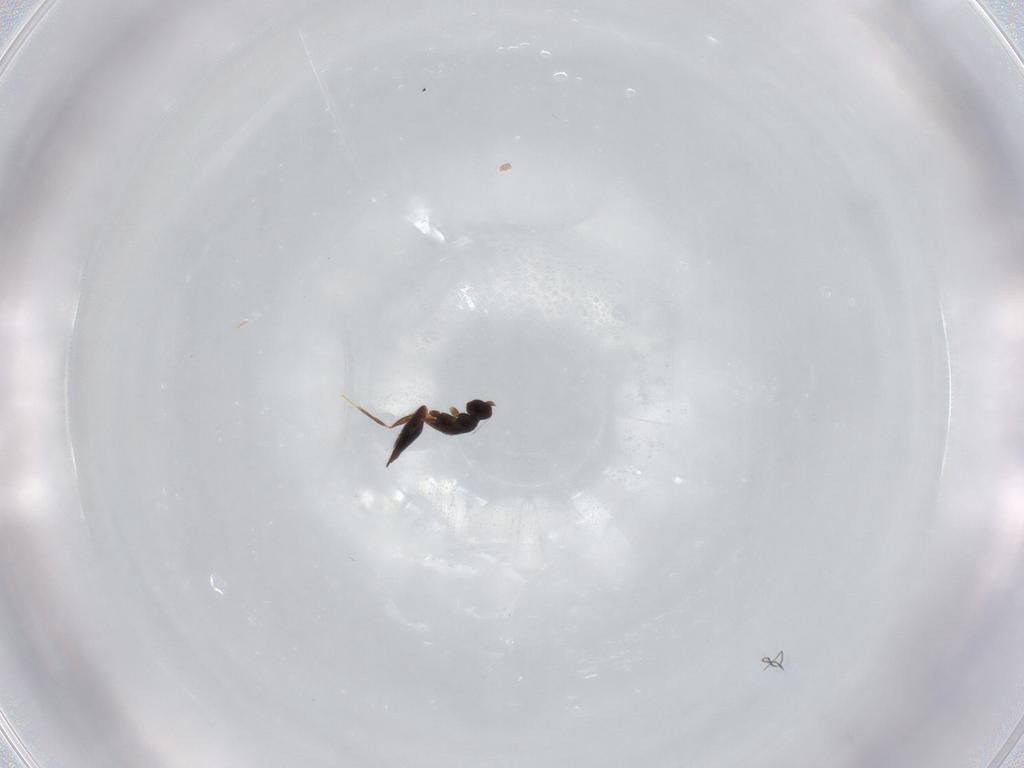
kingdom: Animalia
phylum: Arthropoda
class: Insecta
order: Hymenoptera
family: Mymaridae
